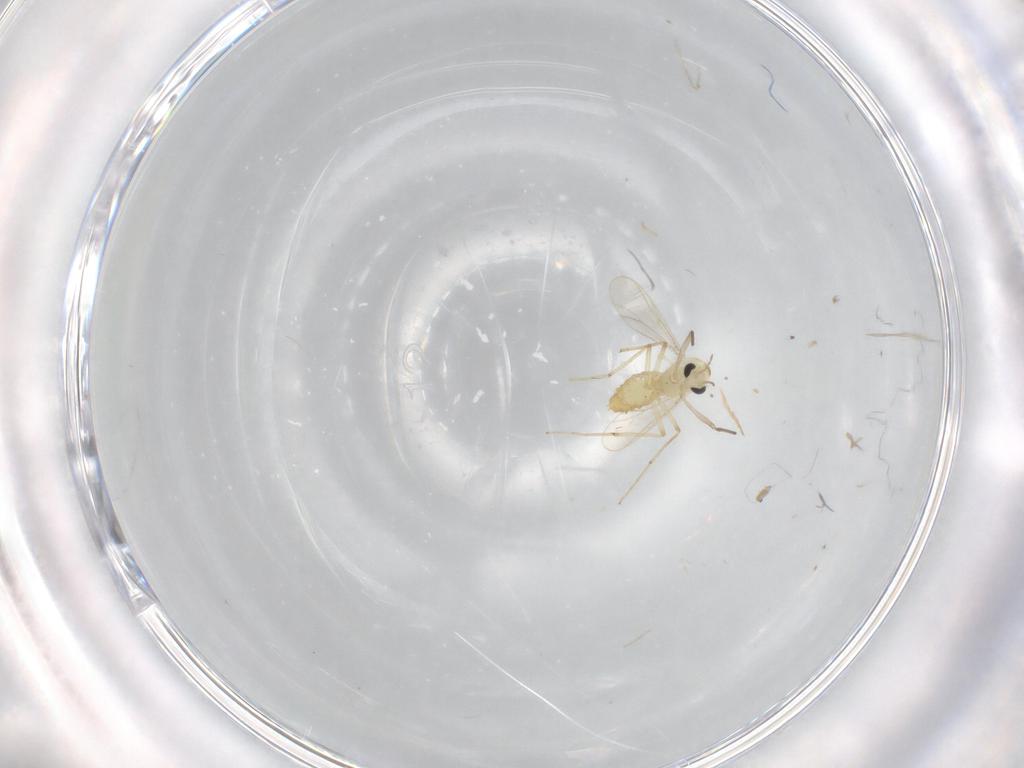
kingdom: Animalia
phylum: Arthropoda
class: Insecta
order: Diptera
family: Chironomidae
